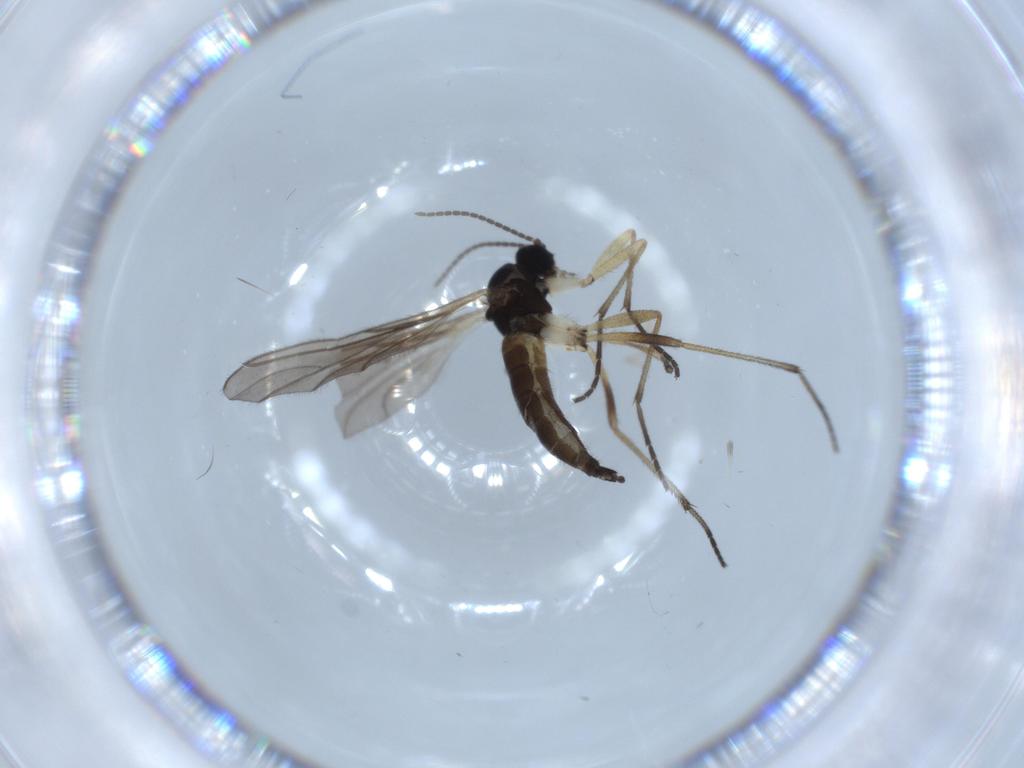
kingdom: Animalia
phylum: Arthropoda
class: Insecta
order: Diptera
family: Sciaridae
